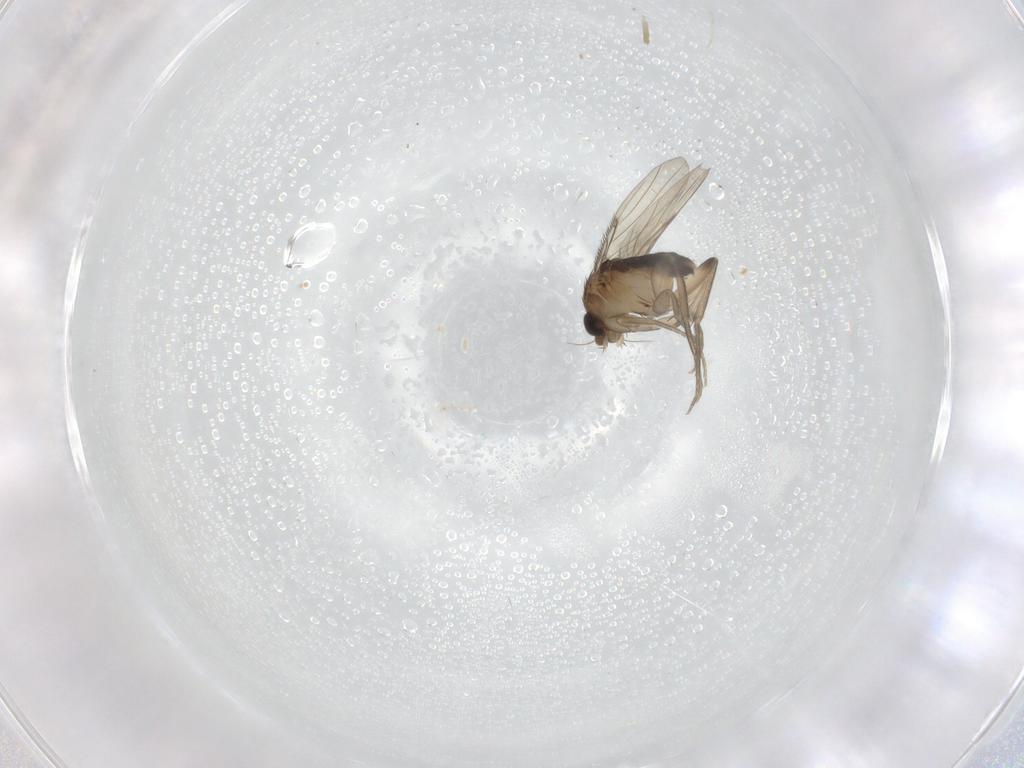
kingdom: Animalia
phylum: Arthropoda
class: Insecta
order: Diptera
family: Phoridae
